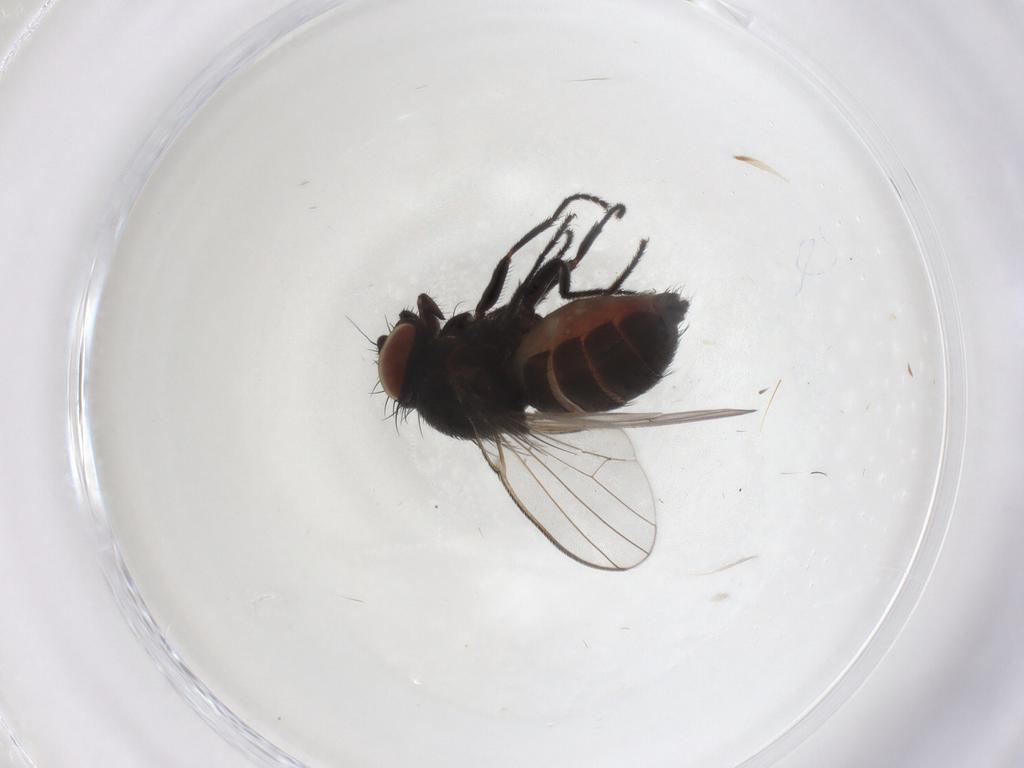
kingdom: Animalia
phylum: Arthropoda
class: Insecta
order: Diptera
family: Milichiidae
